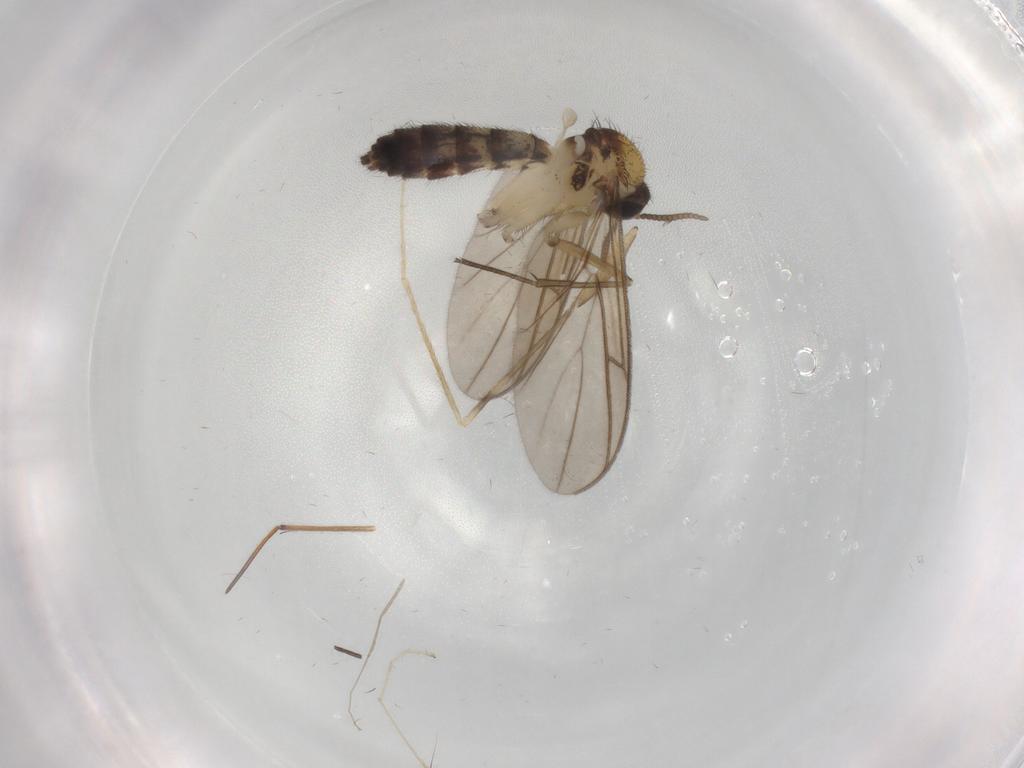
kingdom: Animalia
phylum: Arthropoda
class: Insecta
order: Diptera
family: Keroplatidae
